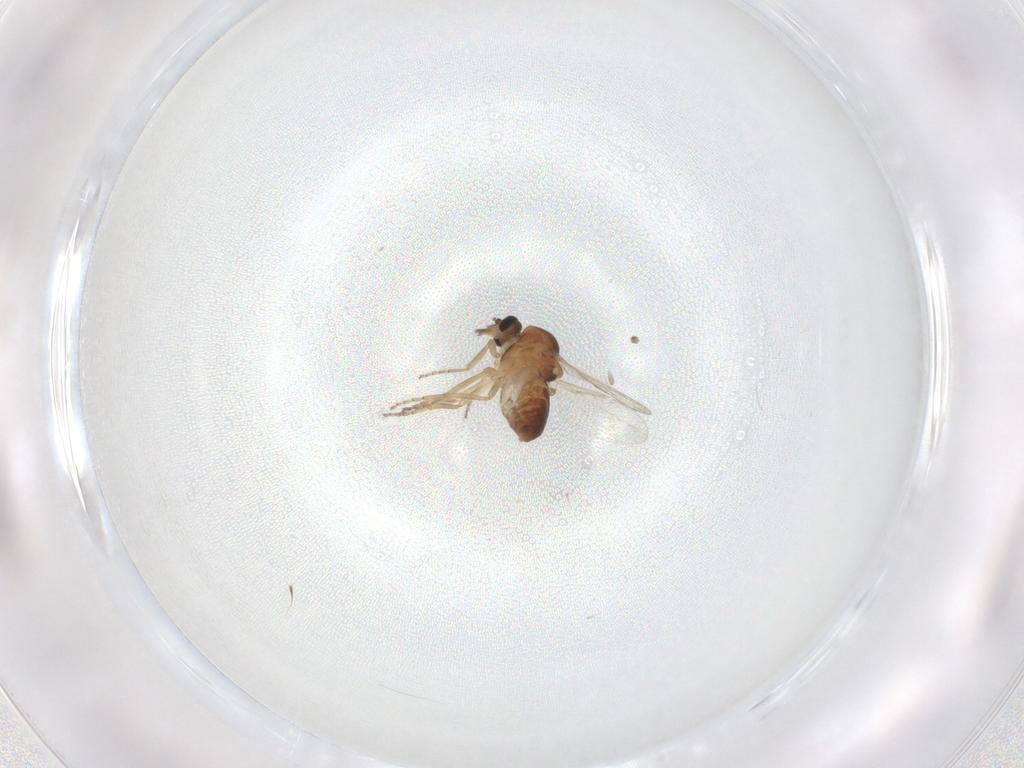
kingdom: Animalia
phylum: Arthropoda
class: Insecta
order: Diptera
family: Ceratopogonidae
